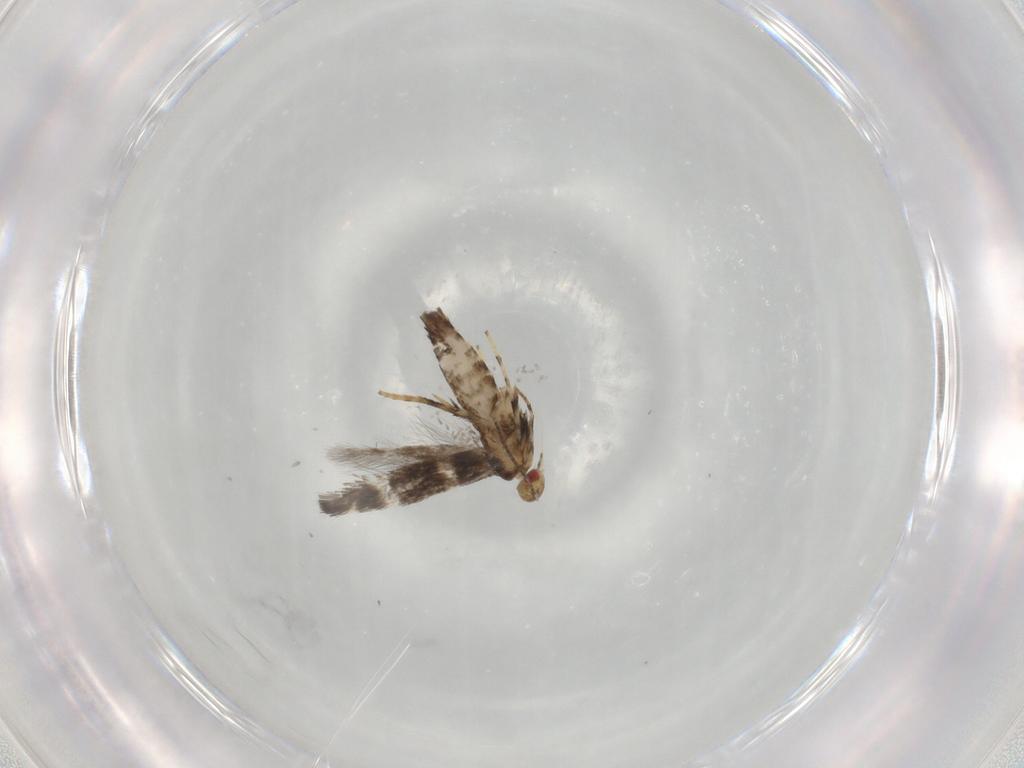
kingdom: Animalia
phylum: Arthropoda
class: Insecta
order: Lepidoptera
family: Gracillariidae
